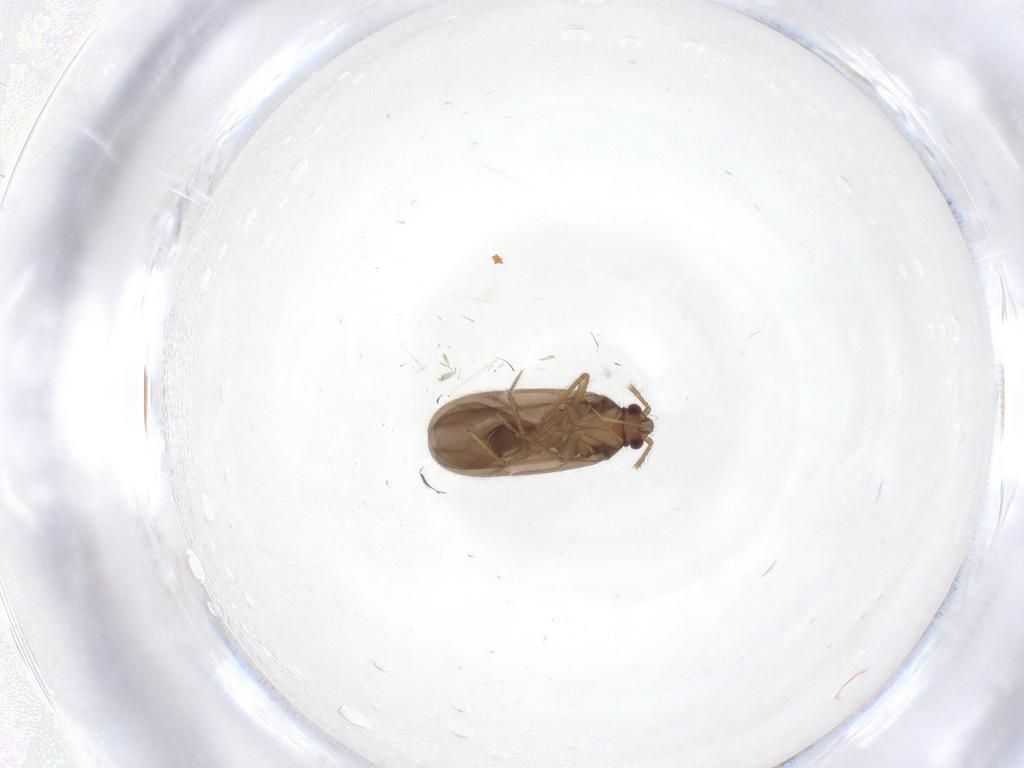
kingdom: Animalia
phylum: Arthropoda
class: Insecta
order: Hemiptera
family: Ceratocombidae
